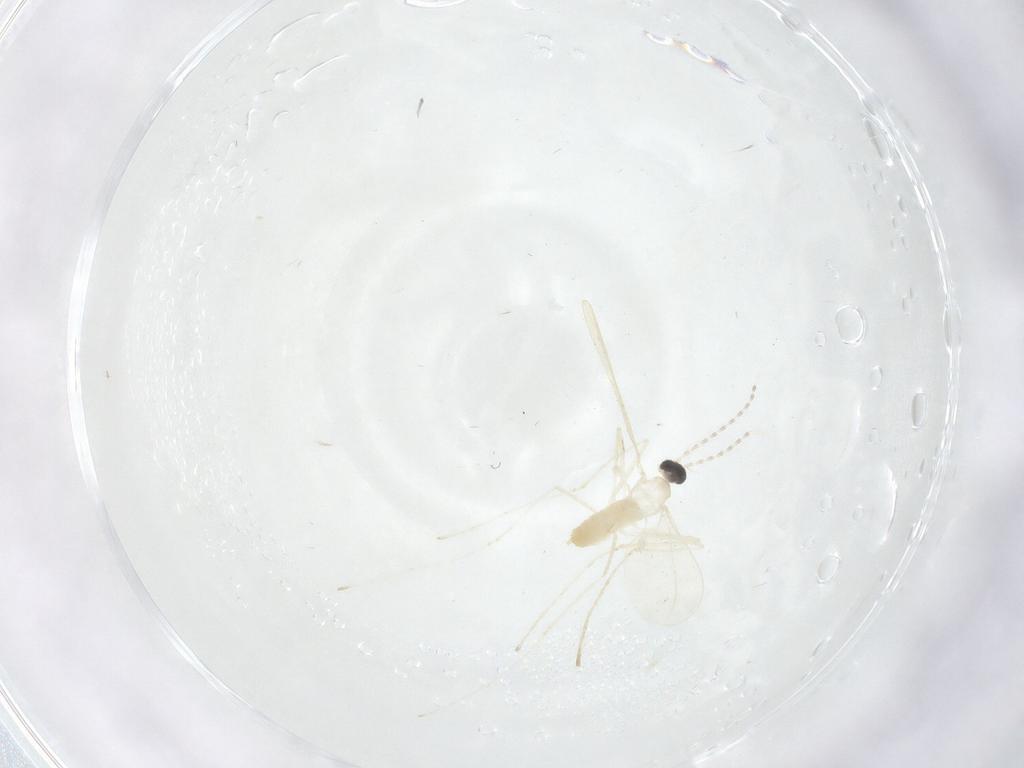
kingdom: Animalia
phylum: Arthropoda
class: Insecta
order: Diptera
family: Cecidomyiidae
